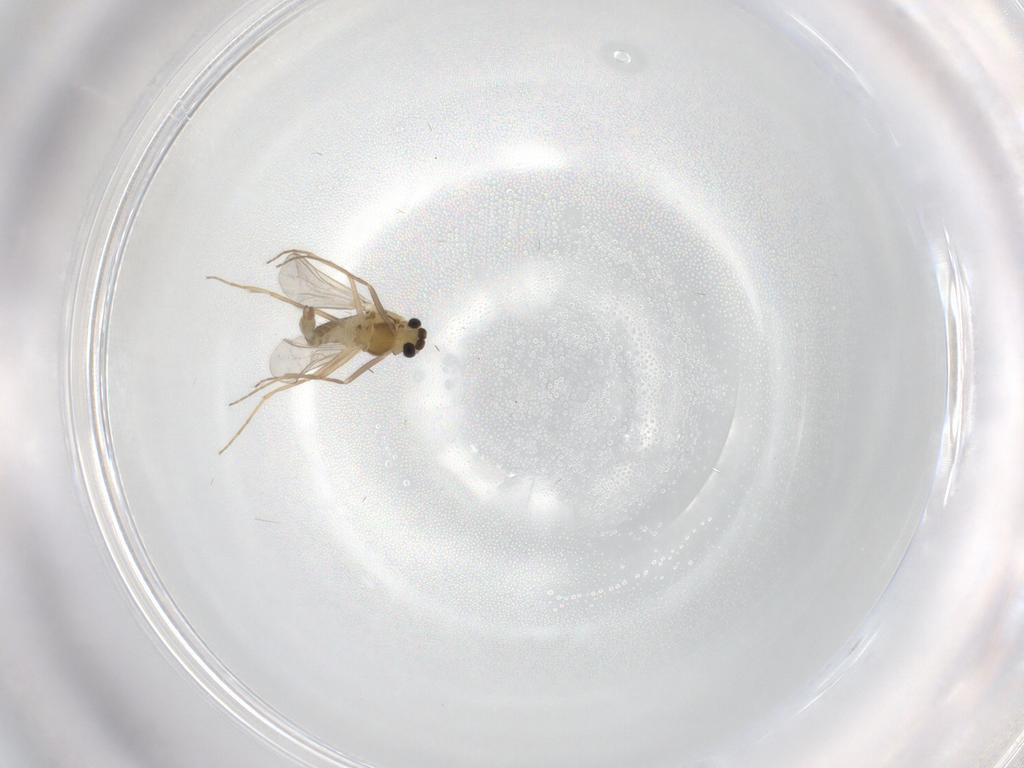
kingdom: Animalia
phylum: Arthropoda
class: Insecta
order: Diptera
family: Chironomidae
